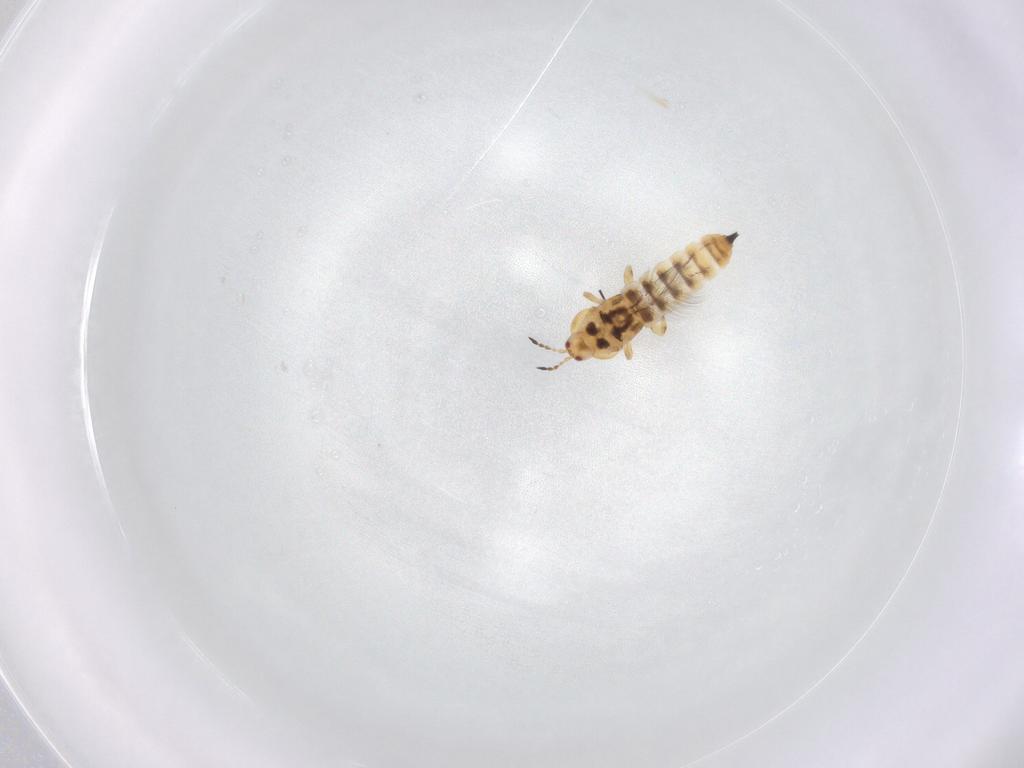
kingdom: Animalia
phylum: Arthropoda
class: Insecta
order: Thysanoptera
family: Phlaeothripidae
